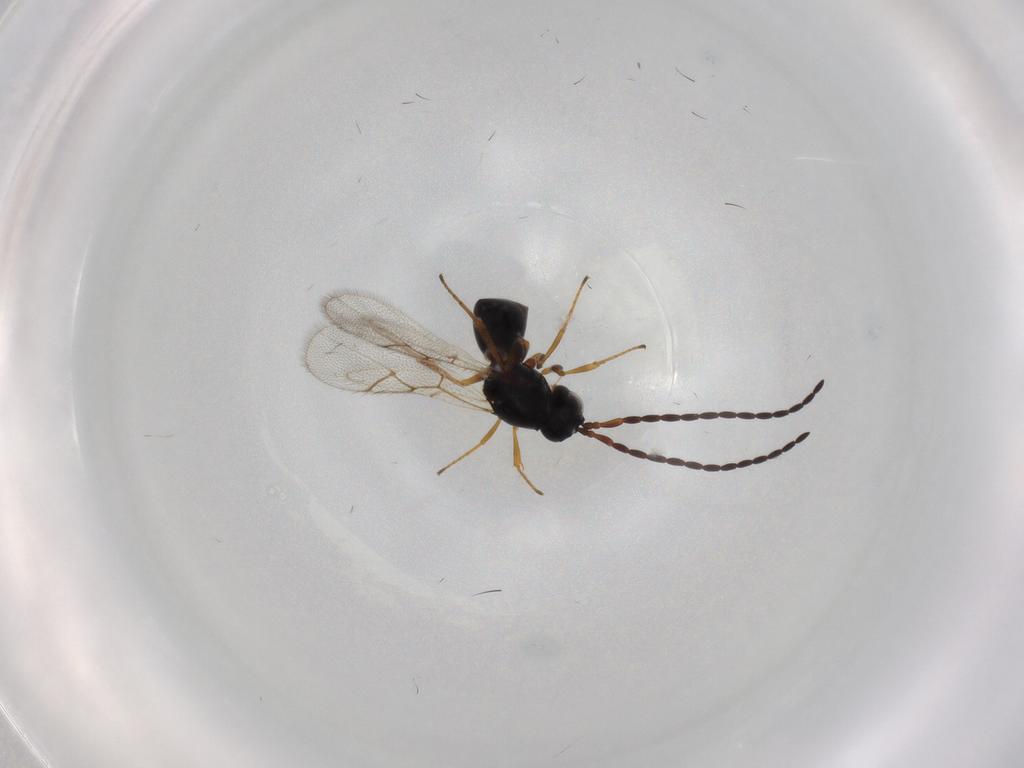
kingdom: Animalia
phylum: Arthropoda
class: Insecta
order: Hymenoptera
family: Figitidae
